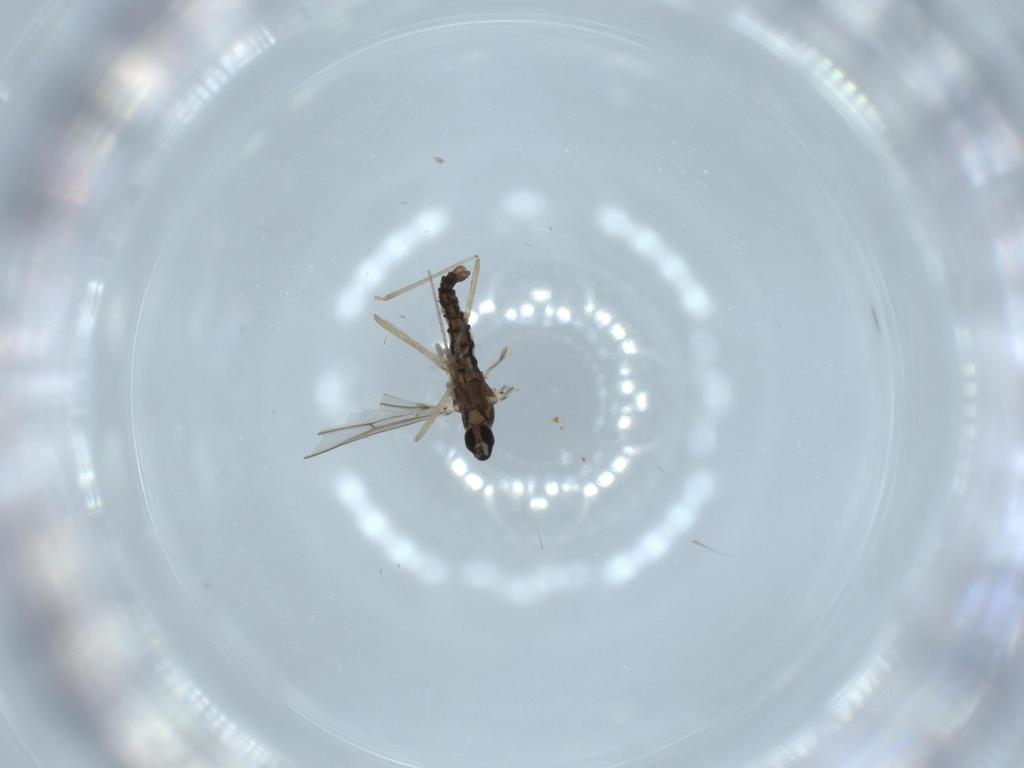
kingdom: Animalia
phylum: Arthropoda
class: Insecta
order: Diptera
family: Cecidomyiidae
